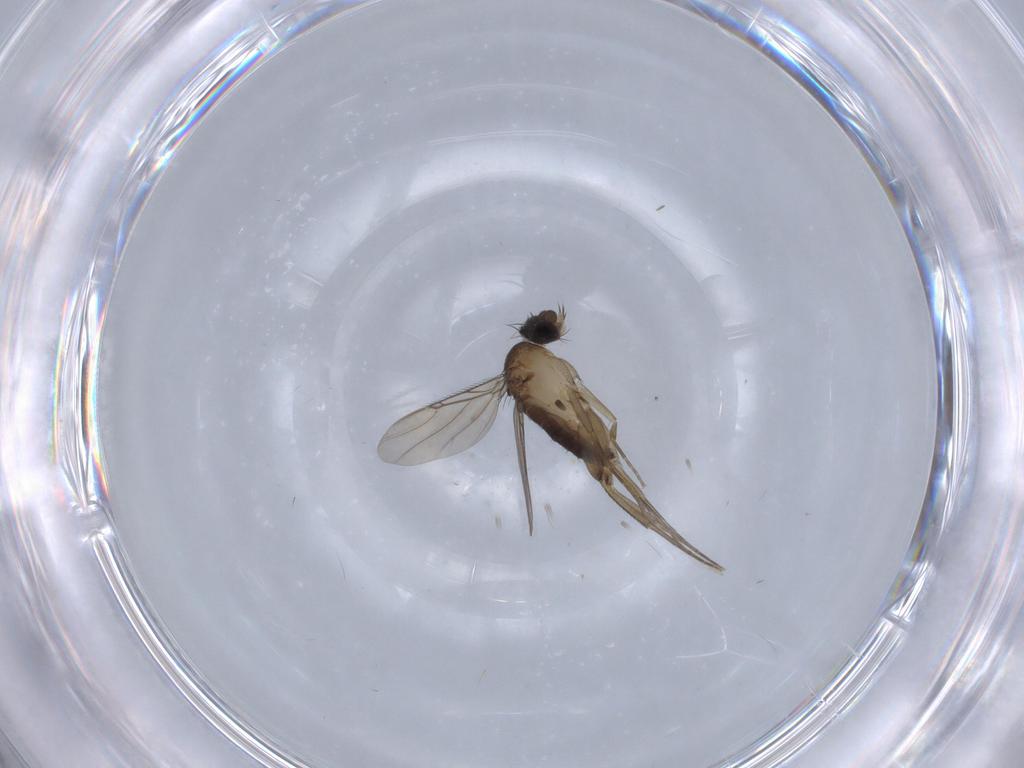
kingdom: Animalia
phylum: Arthropoda
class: Insecta
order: Diptera
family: Phoridae
